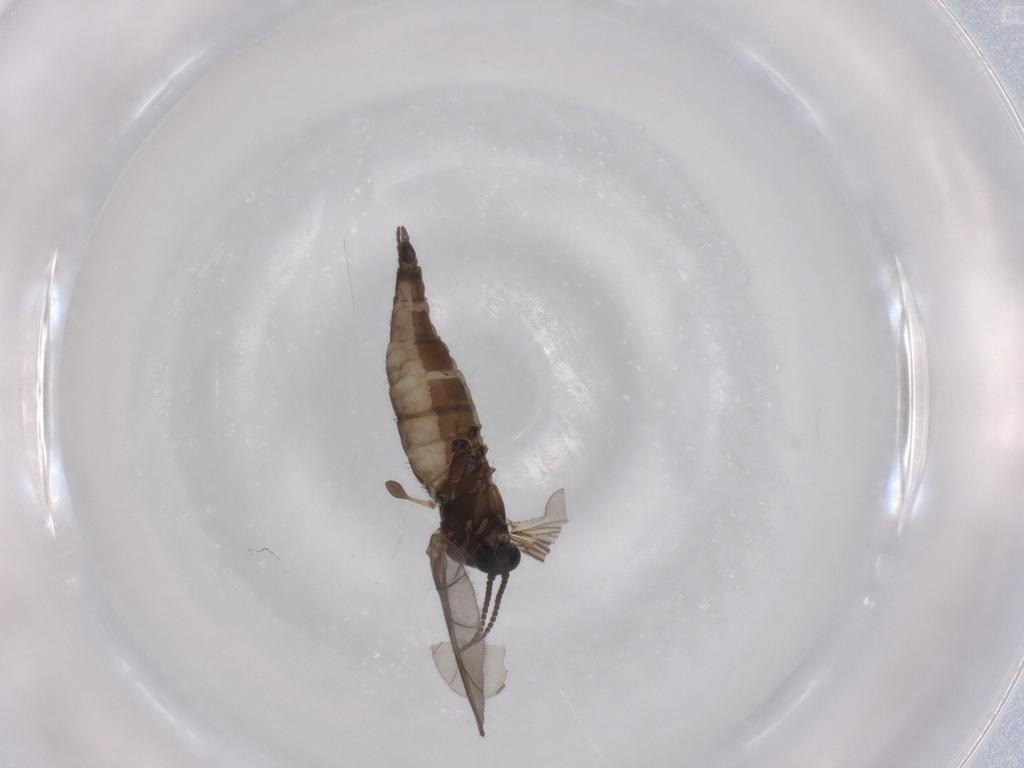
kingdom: Animalia
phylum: Arthropoda
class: Insecta
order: Diptera
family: Sciaridae
